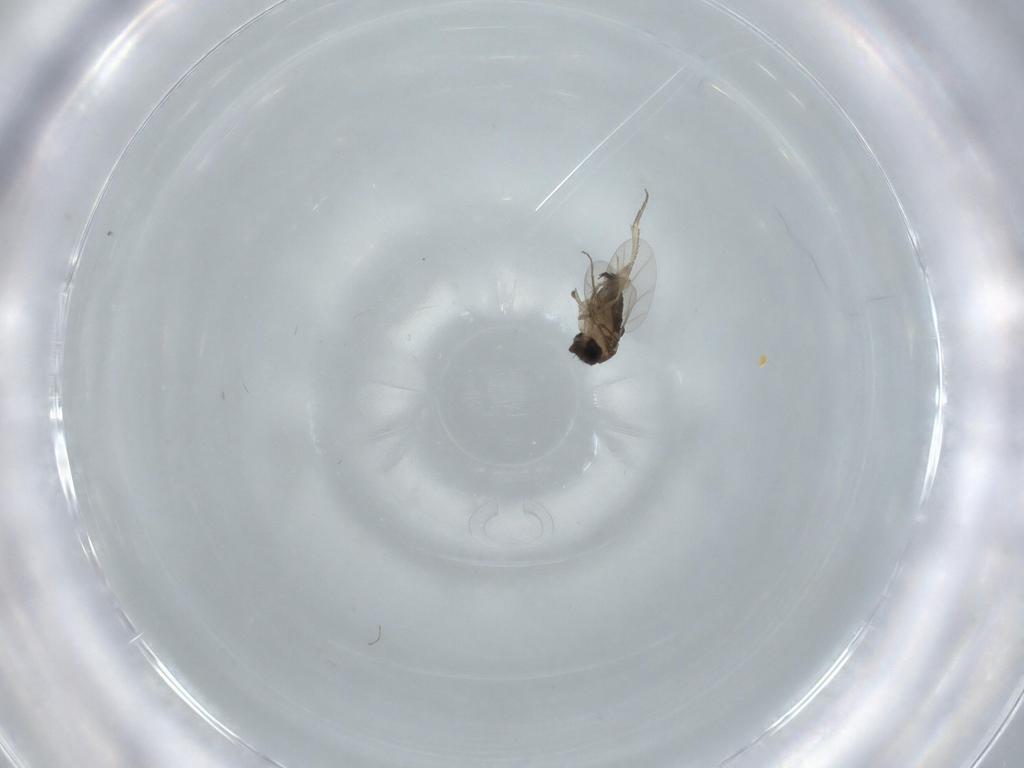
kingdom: Animalia
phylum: Arthropoda
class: Insecta
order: Diptera
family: Phoridae
